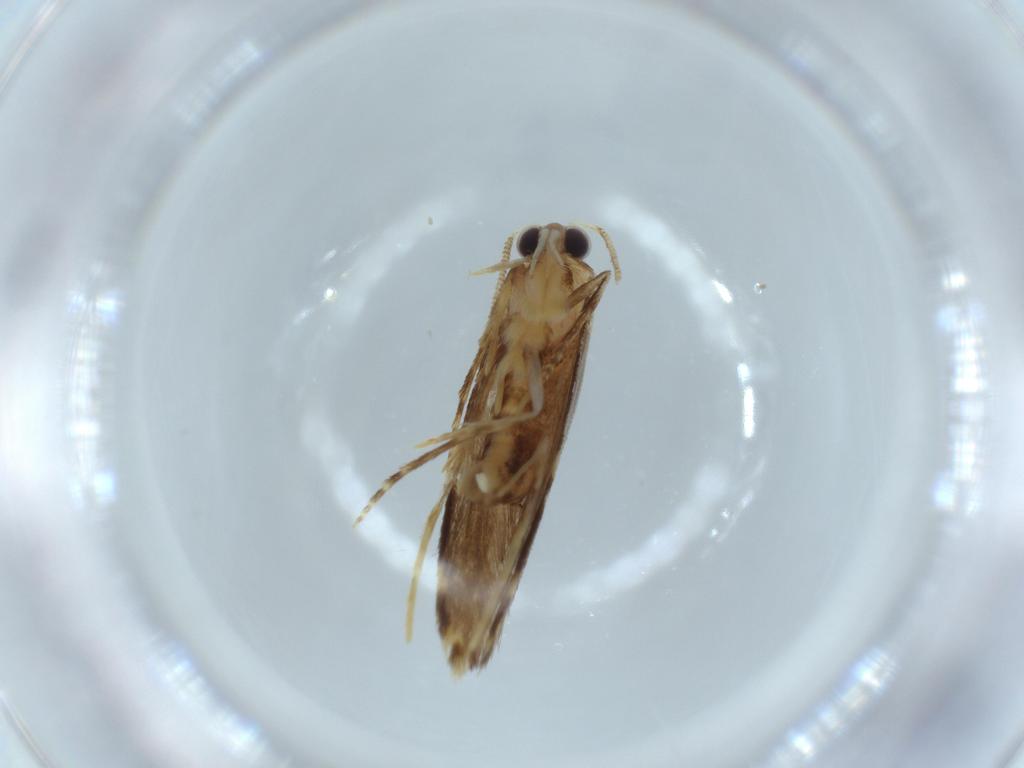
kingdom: Animalia
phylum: Arthropoda
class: Insecta
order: Lepidoptera
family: Tineidae
